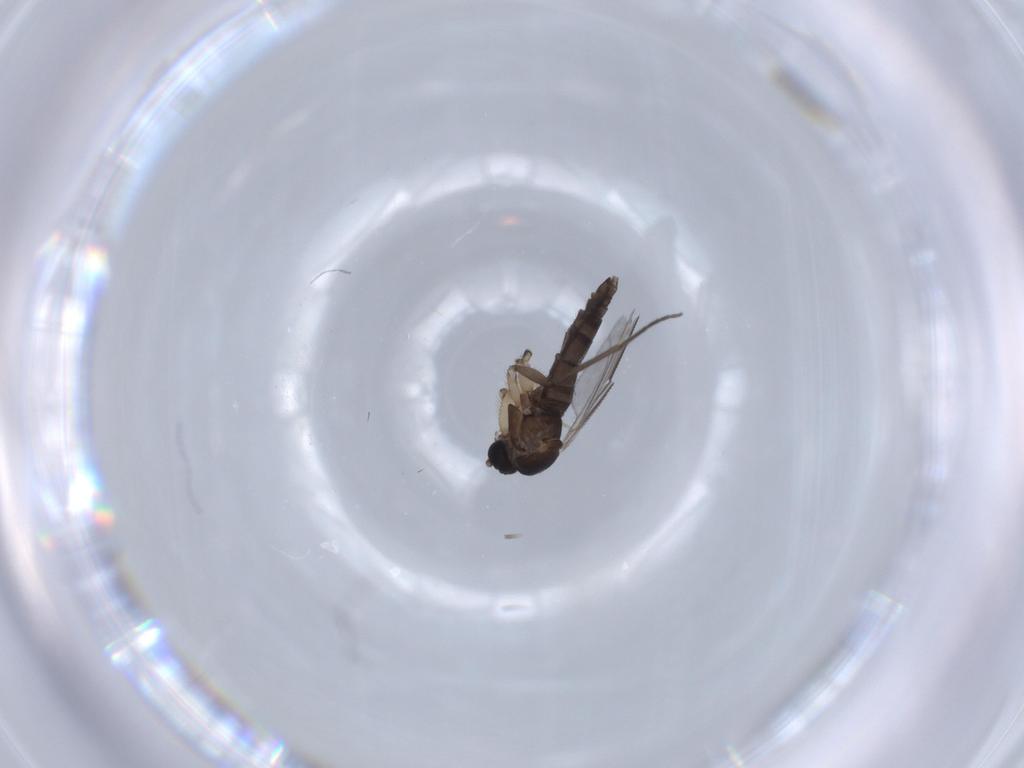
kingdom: Animalia
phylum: Arthropoda
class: Insecta
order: Diptera
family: Sciaridae
